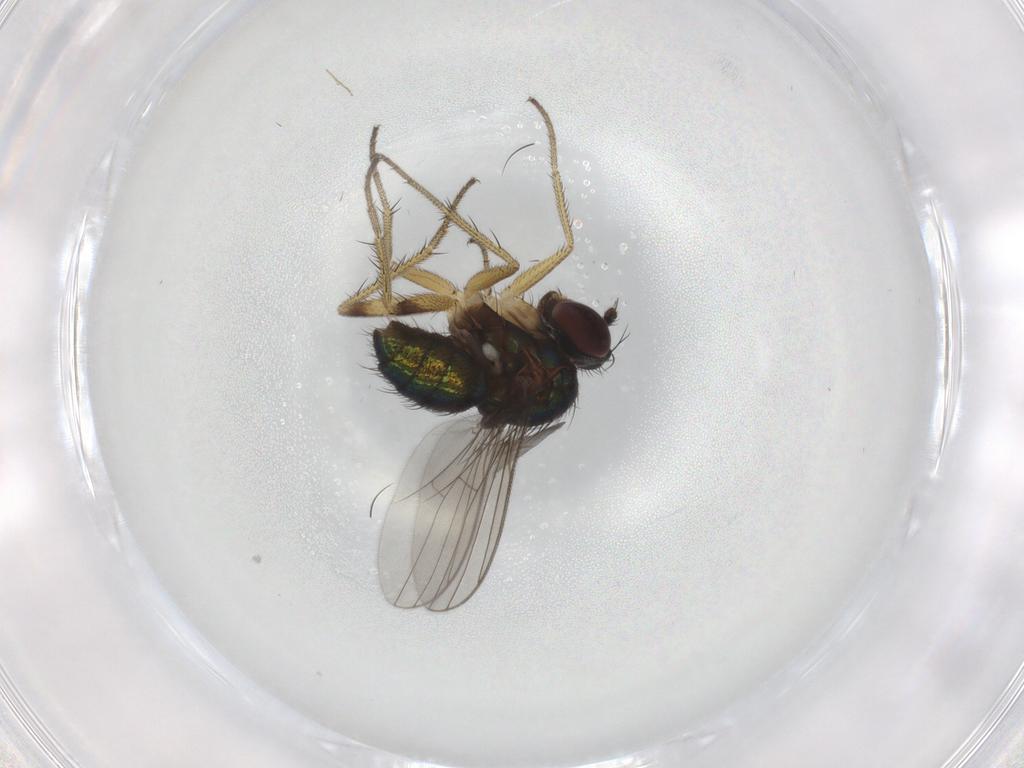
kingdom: Animalia
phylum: Arthropoda
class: Insecta
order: Diptera
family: Dolichopodidae
